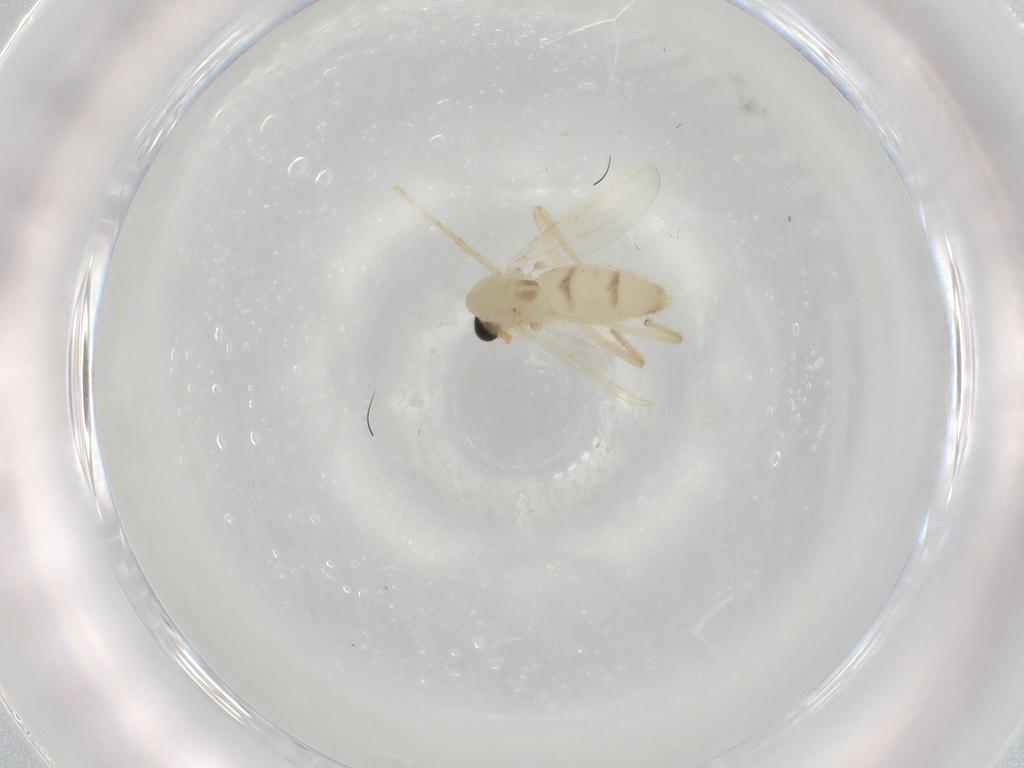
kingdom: Animalia
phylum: Arthropoda
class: Insecta
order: Diptera
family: Chironomidae
